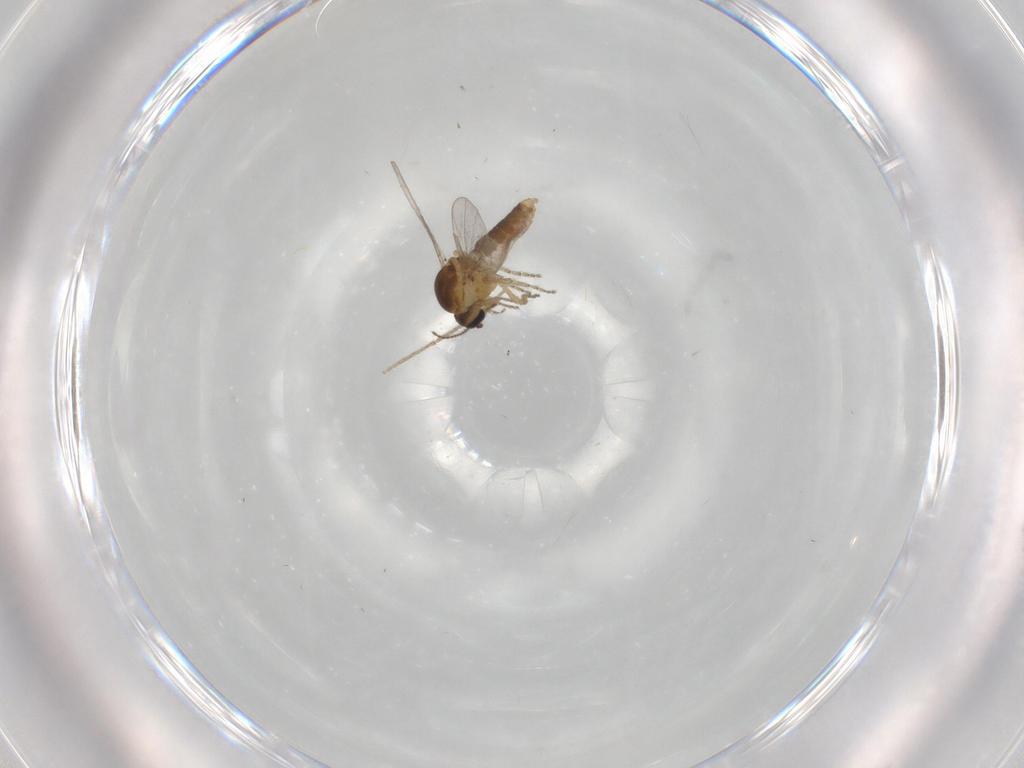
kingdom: Animalia
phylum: Arthropoda
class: Insecta
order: Diptera
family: Ceratopogonidae
